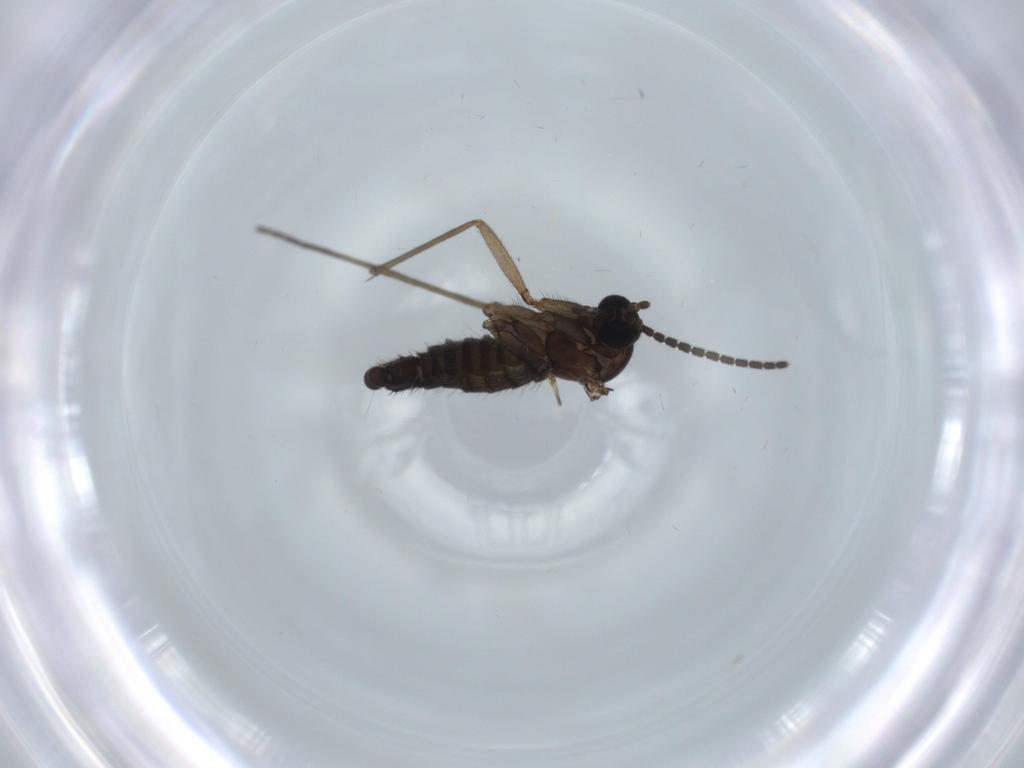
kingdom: Animalia
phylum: Arthropoda
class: Insecta
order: Diptera
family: Sciaridae
